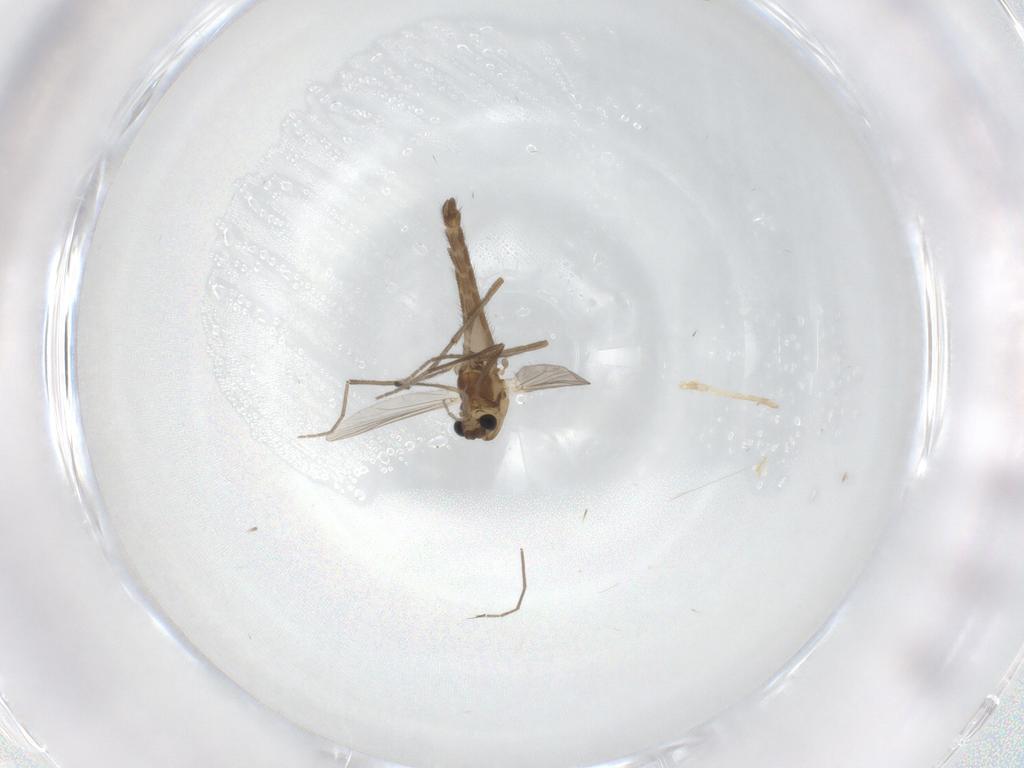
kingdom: Animalia
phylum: Arthropoda
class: Insecta
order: Diptera
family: Chironomidae
